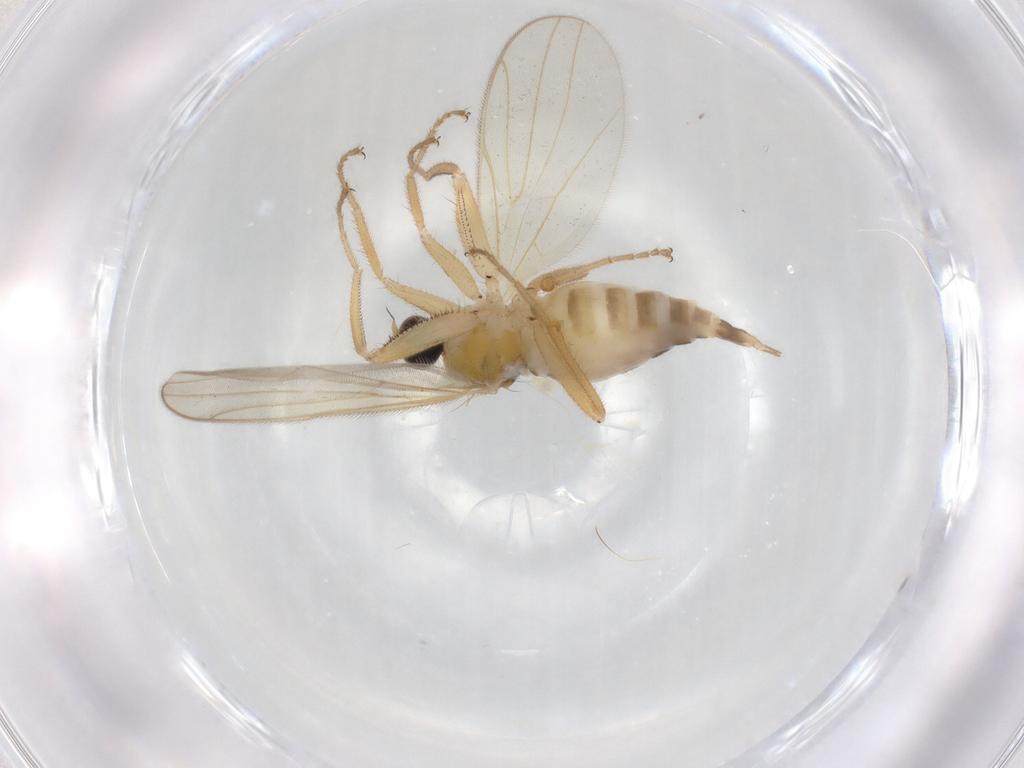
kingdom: Animalia
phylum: Arthropoda
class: Insecta
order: Diptera
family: Hybotidae
